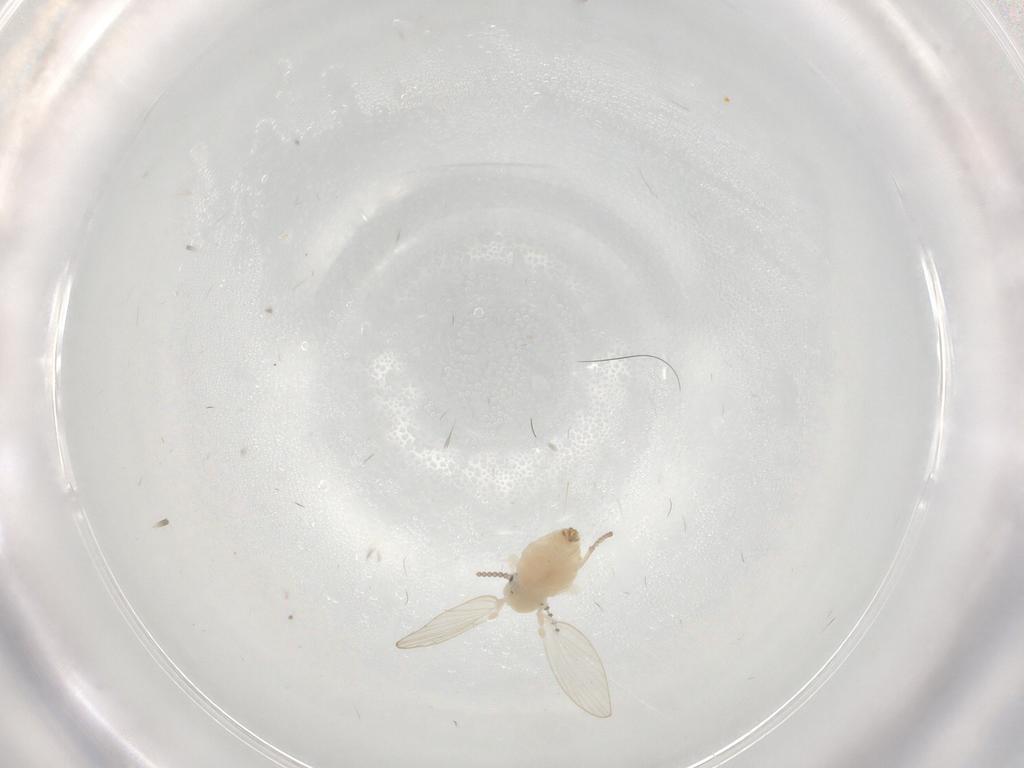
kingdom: Animalia
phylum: Arthropoda
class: Insecta
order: Diptera
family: Psychodidae
